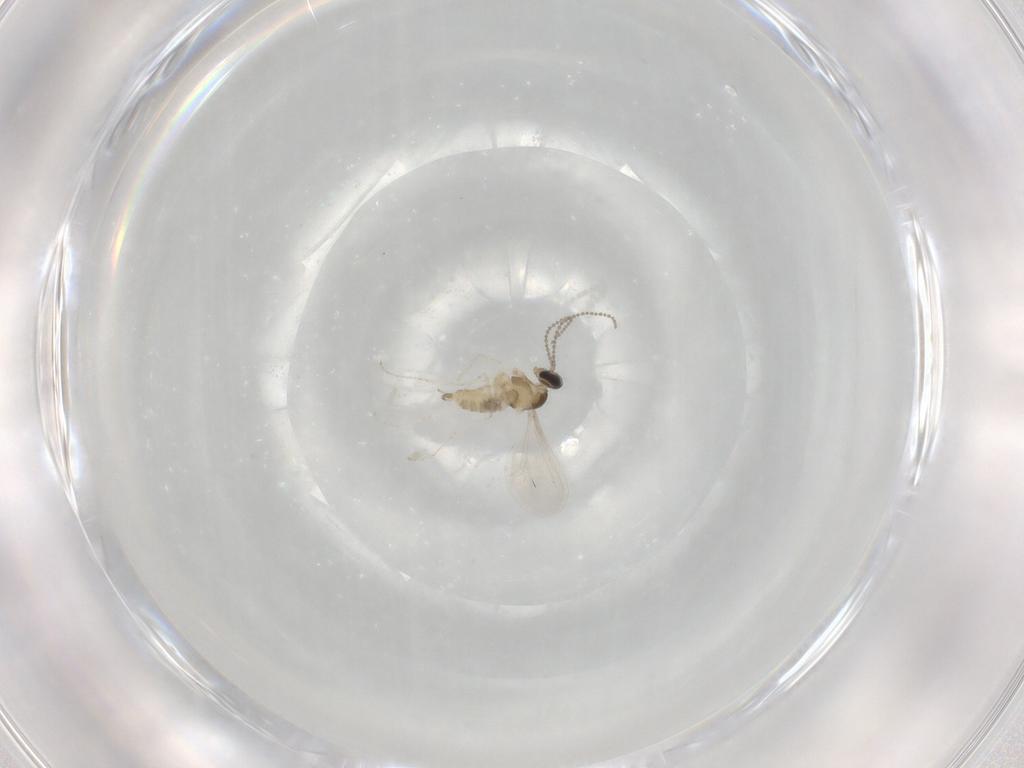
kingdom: Animalia
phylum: Arthropoda
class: Insecta
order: Diptera
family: Cecidomyiidae
